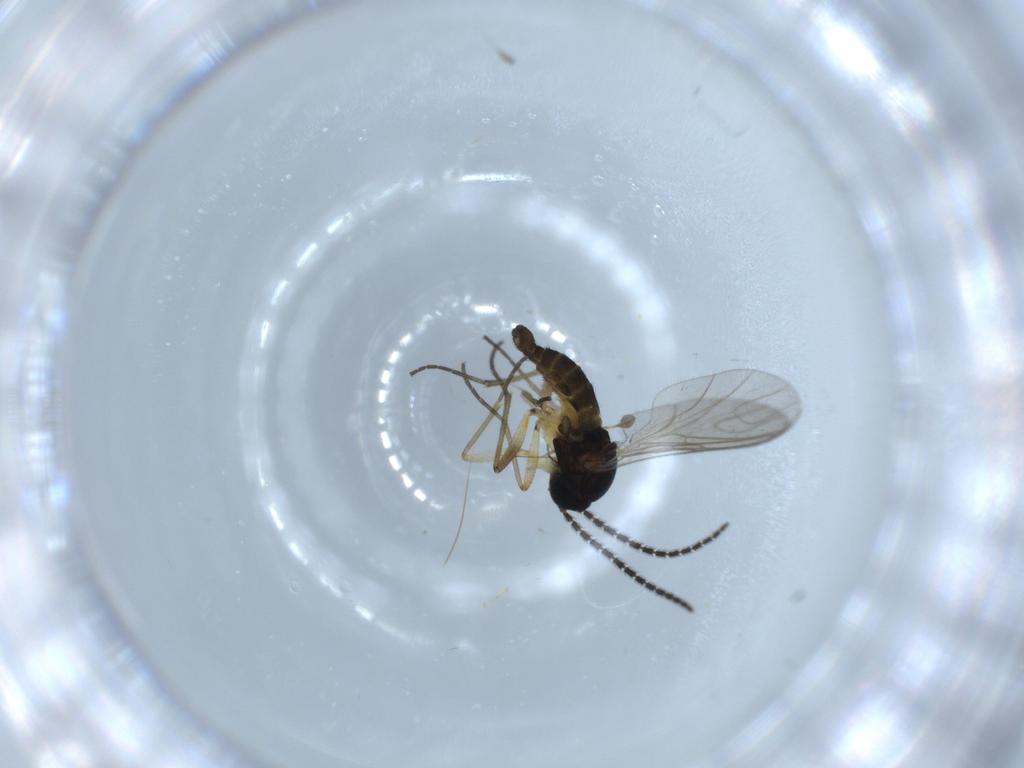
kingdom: Animalia
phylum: Arthropoda
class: Insecta
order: Diptera
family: Sciaridae
